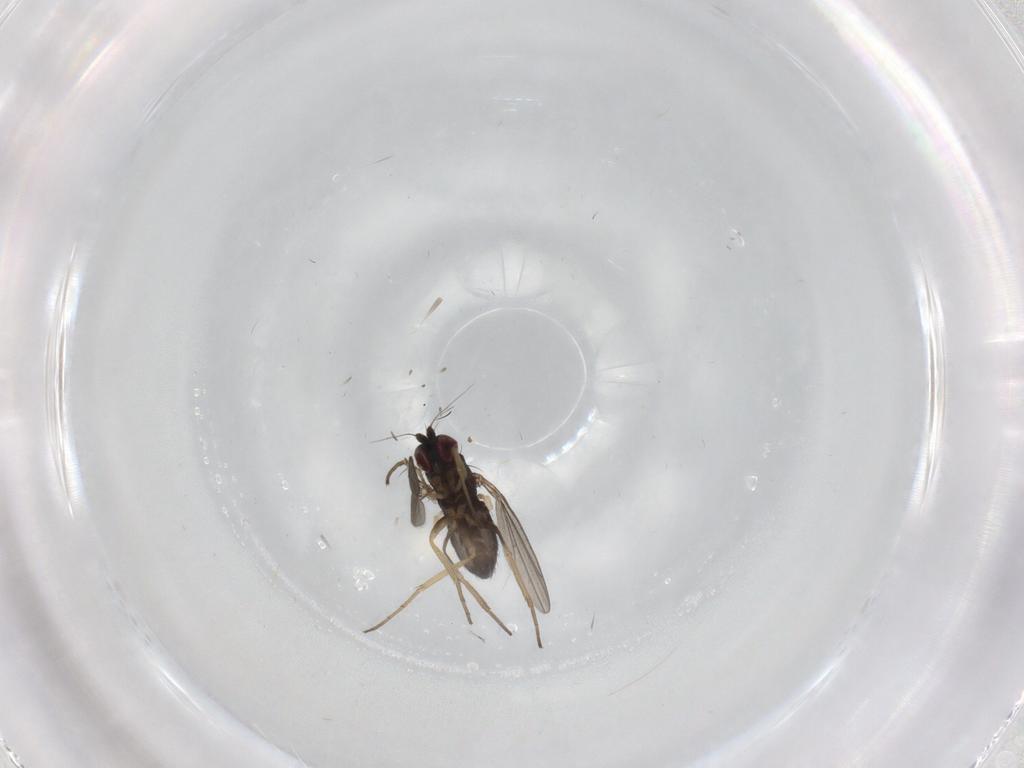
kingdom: Animalia
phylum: Arthropoda
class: Insecta
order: Diptera
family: Dolichopodidae
